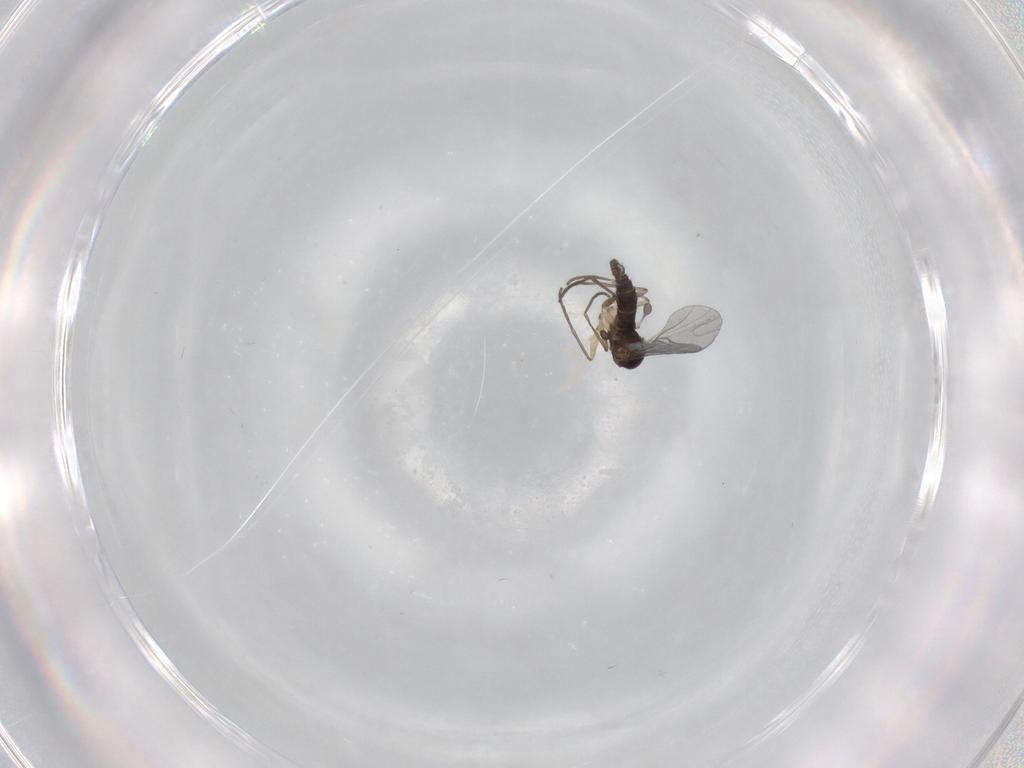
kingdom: Animalia
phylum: Arthropoda
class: Insecta
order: Diptera
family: Sciaridae
